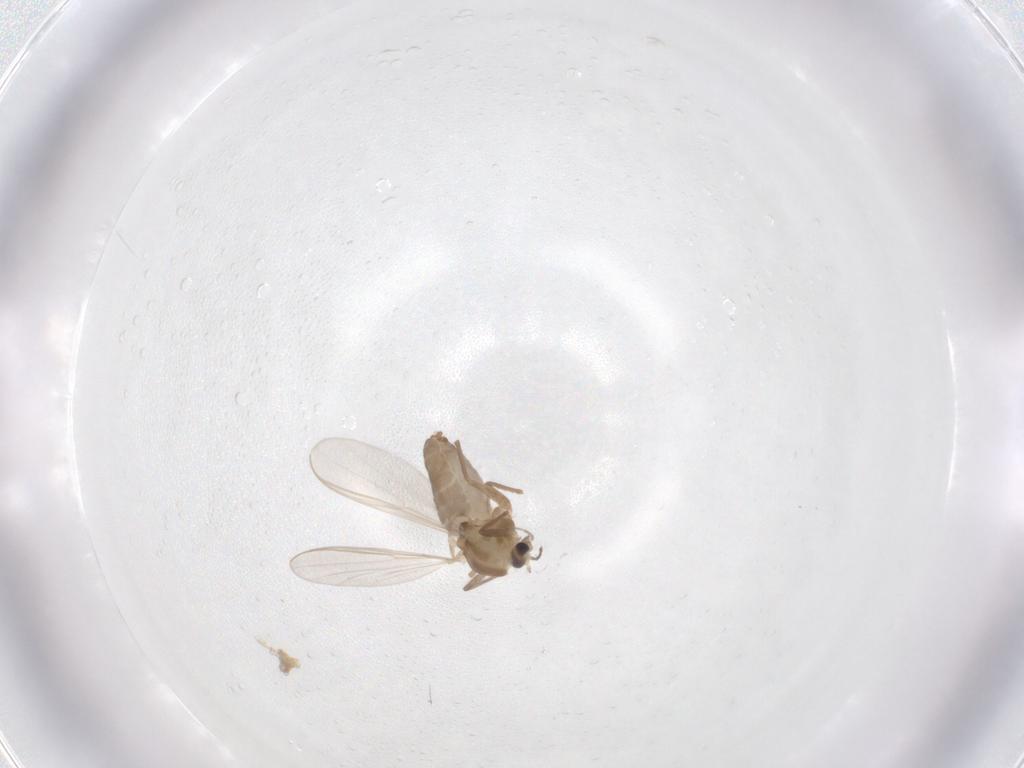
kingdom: Animalia
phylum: Arthropoda
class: Insecta
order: Diptera
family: Chironomidae
